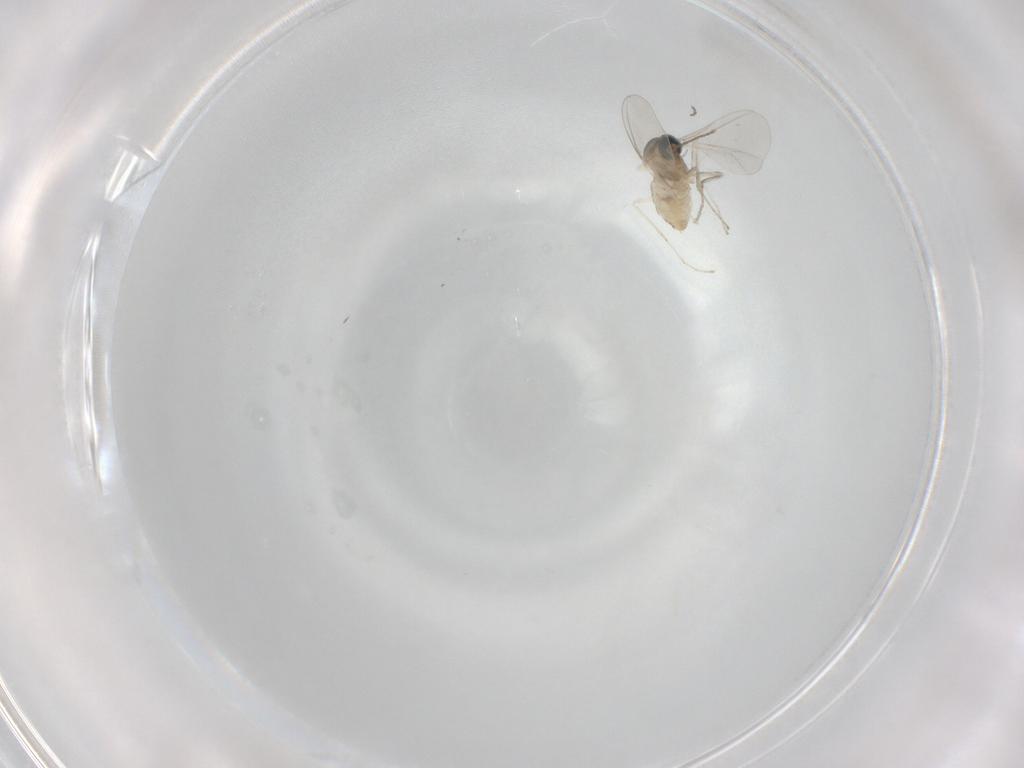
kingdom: Animalia
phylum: Arthropoda
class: Insecta
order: Diptera
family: Cecidomyiidae
